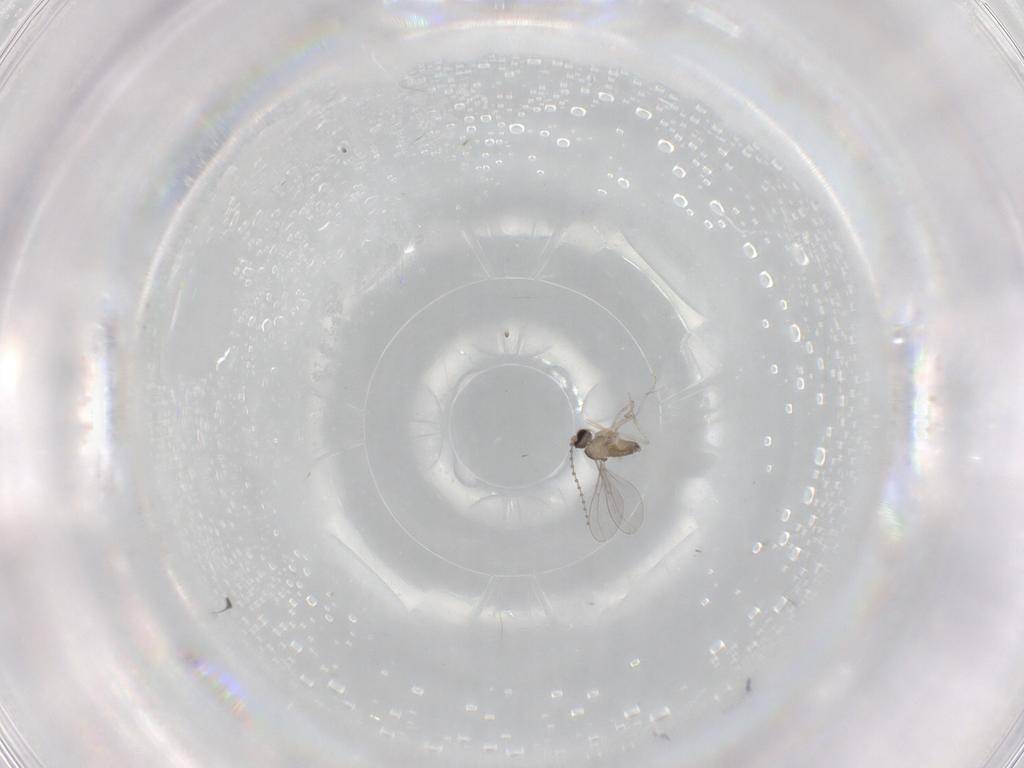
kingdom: Animalia
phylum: Arthropoda
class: Insecta
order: Diptera
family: Cecidomyiidae
